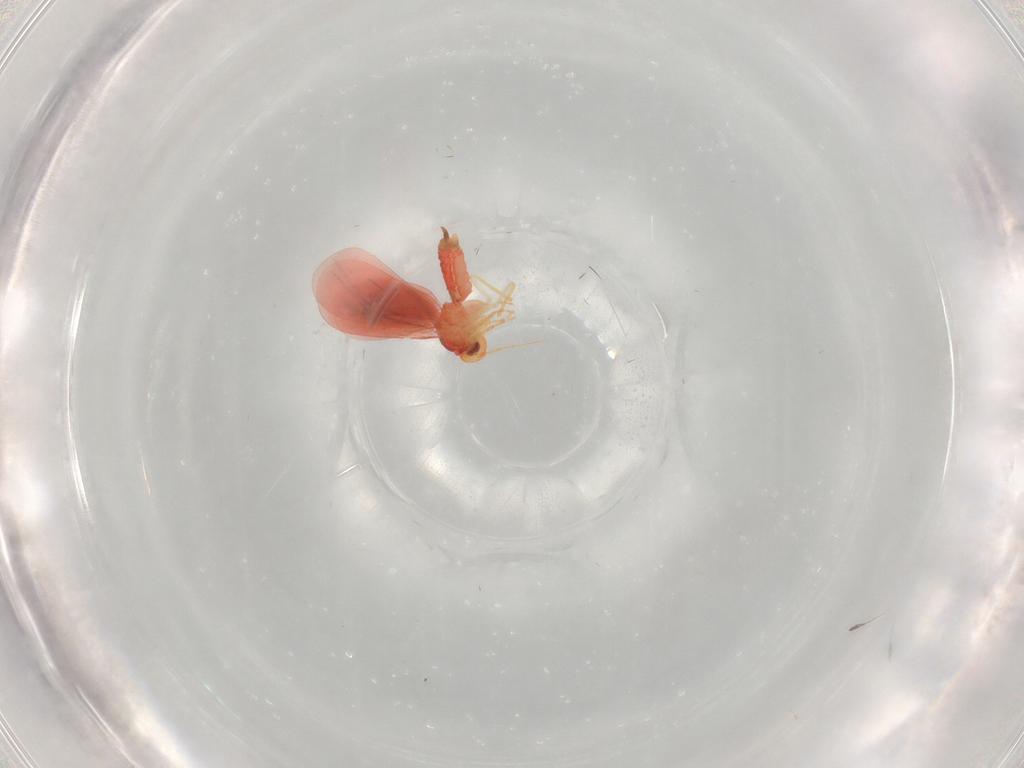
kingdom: Animalia
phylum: Arthropoda
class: Insecta
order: Hemiptera
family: Aleyrodidae
